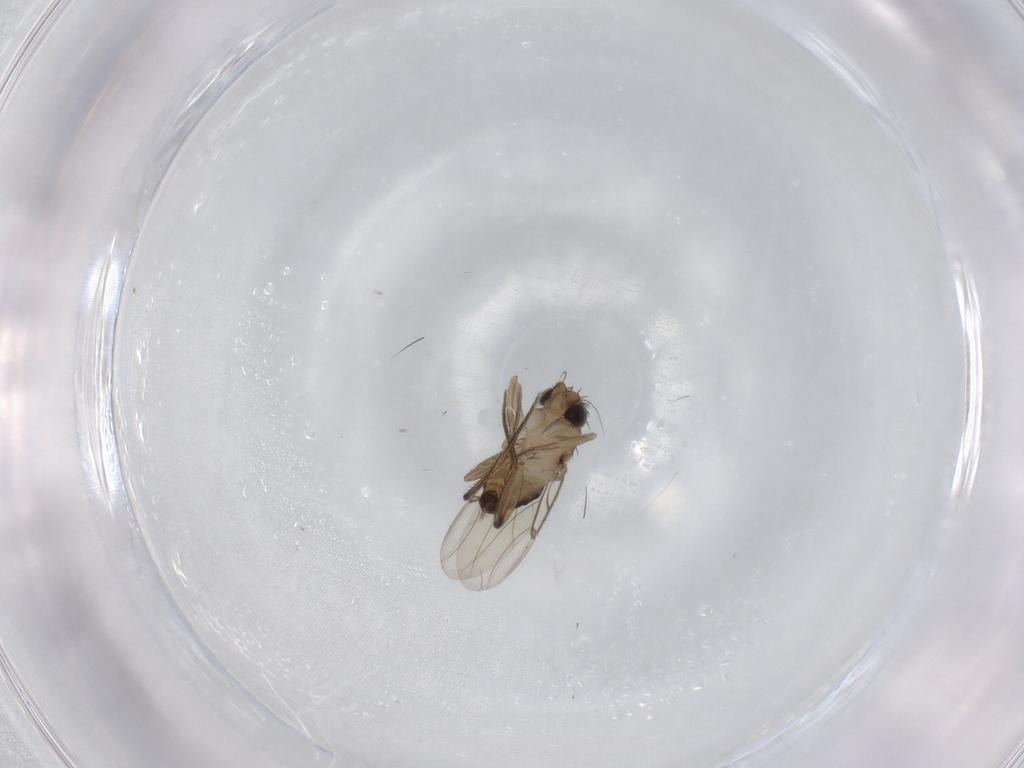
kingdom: Animalia
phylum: Arthropoda
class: Insecta
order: Diptera
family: Phoridae
